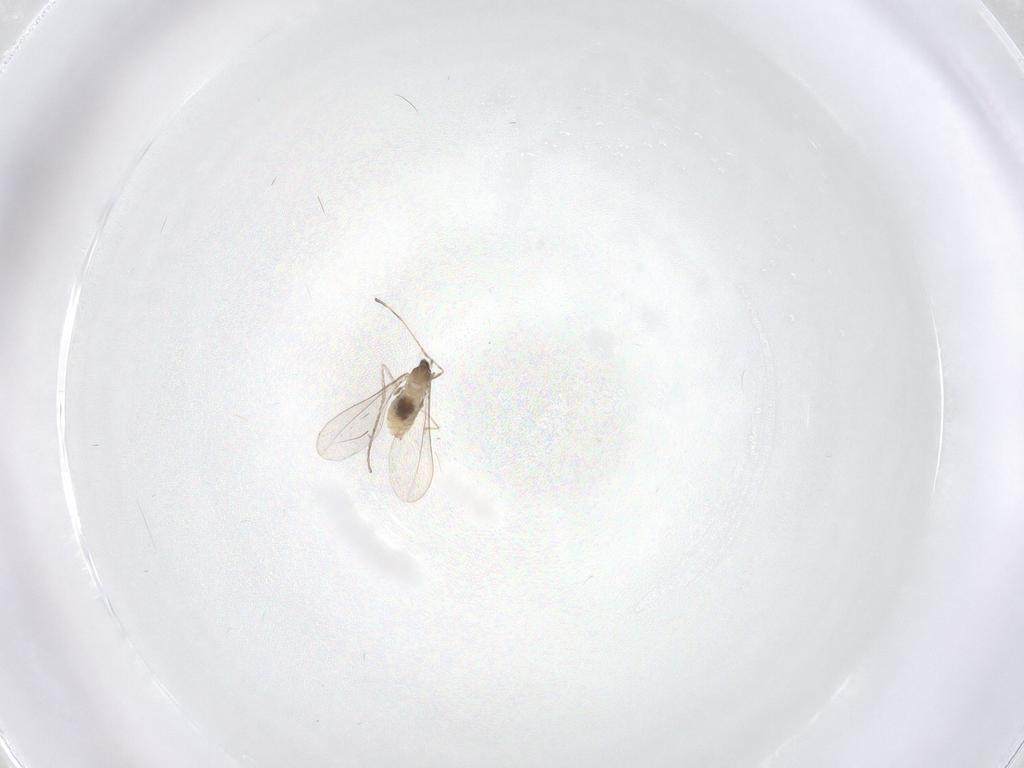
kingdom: Animalia
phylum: Arthropoda
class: Insecta
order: Diptera
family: Cecidomyiidae
